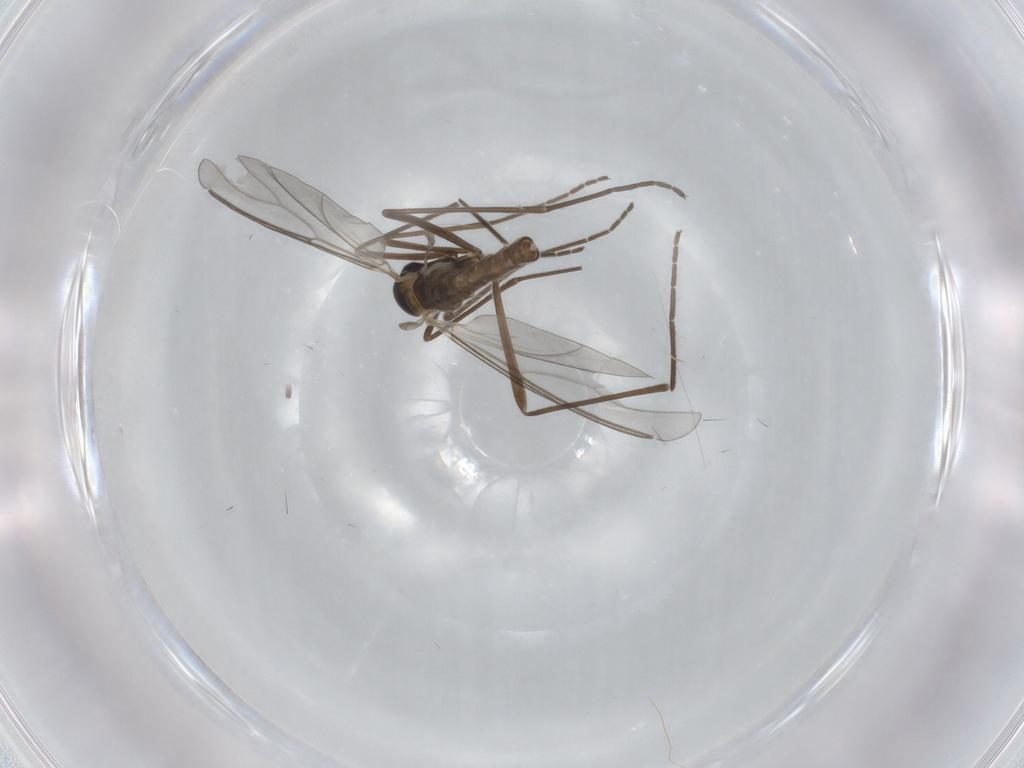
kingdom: Animalia
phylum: Arthropoda
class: Insecta
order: Diptera
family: Cecidomyiidae
